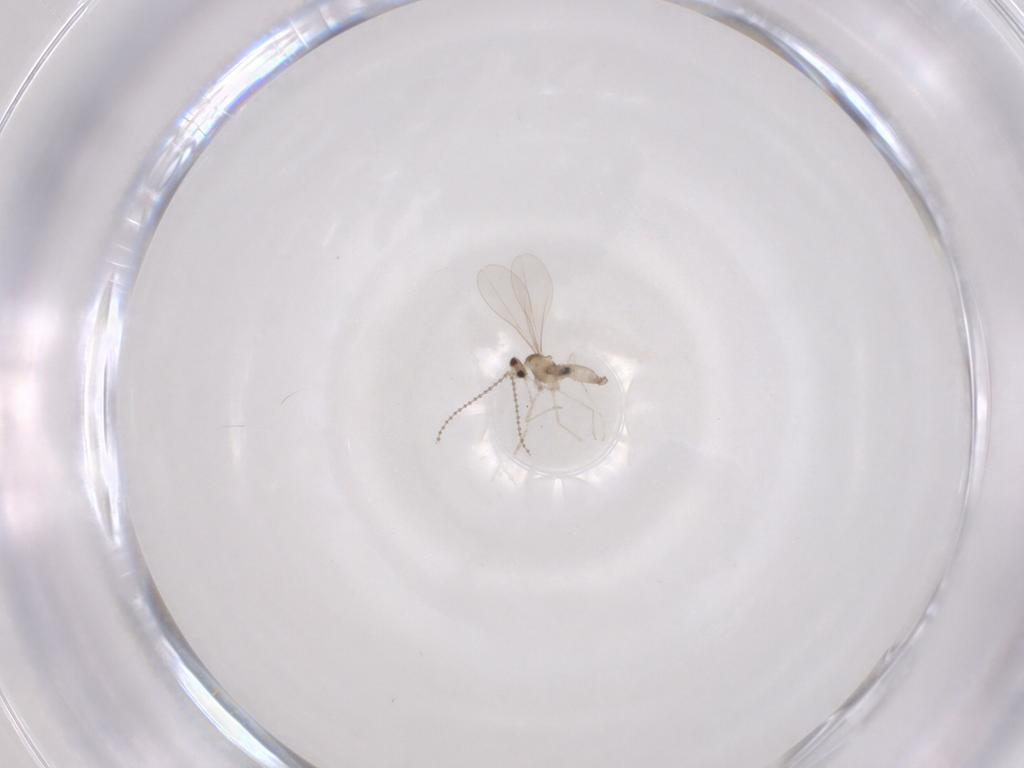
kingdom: Animalia
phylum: Arthropoda
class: Insecta
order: Diptera
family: Cecidomyiidae
